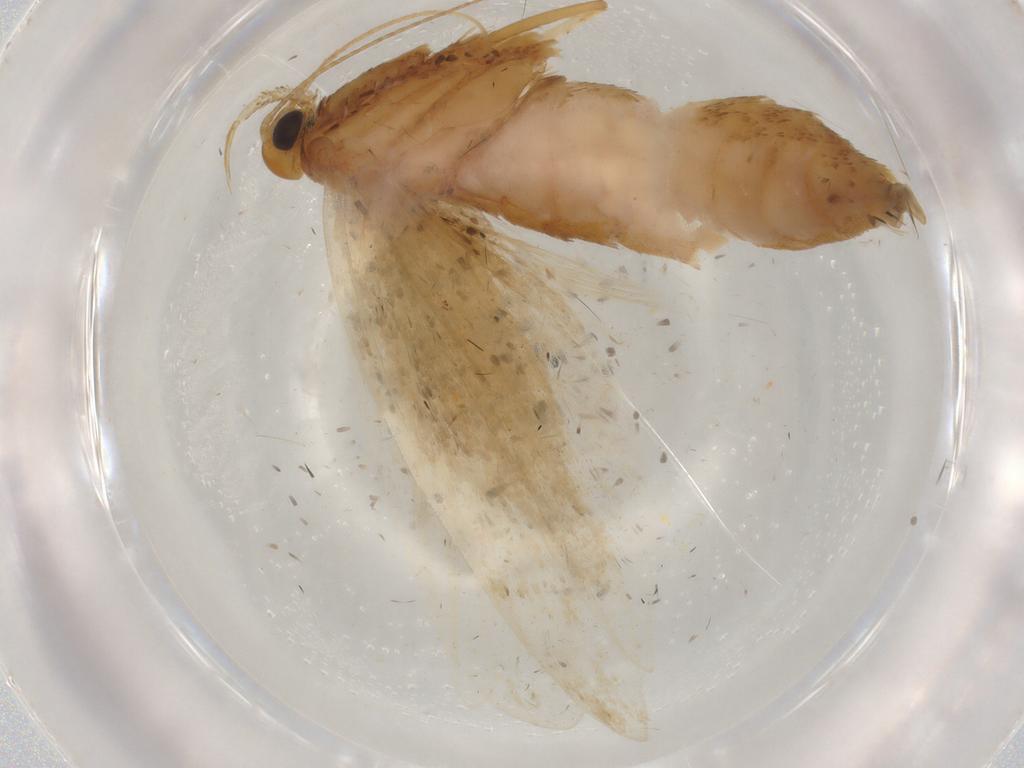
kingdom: Animalia
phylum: Arthropoda
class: Insecta
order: Lepidoptera
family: Gelechiidae
